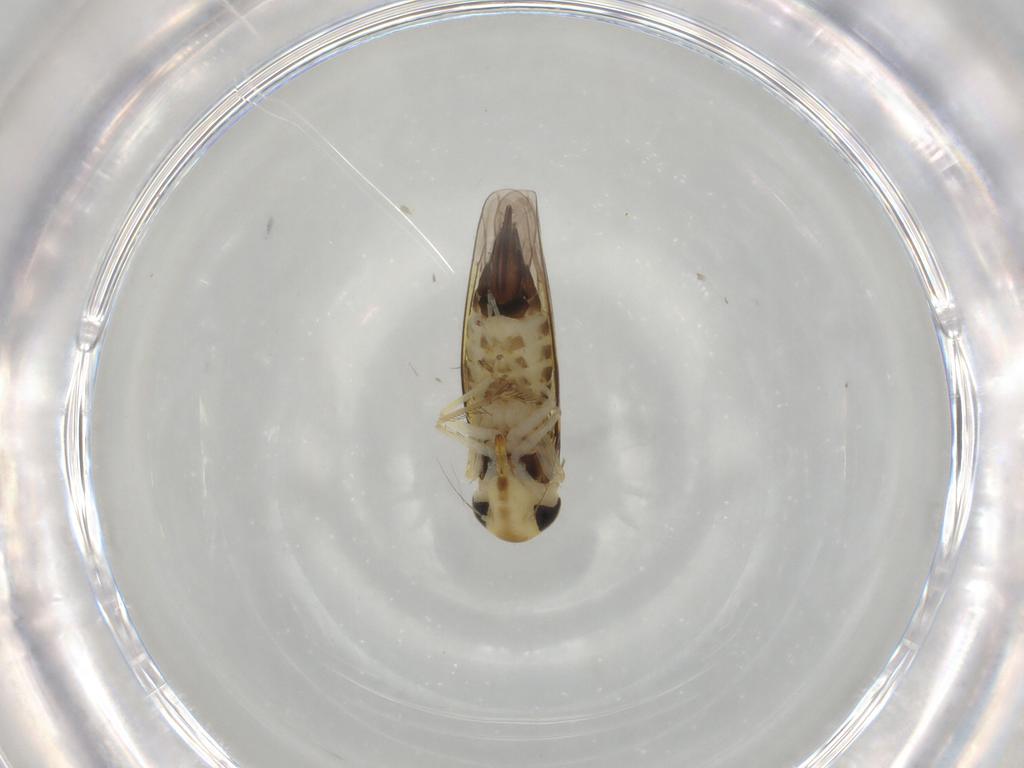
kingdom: Animalia
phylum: Arthropoda
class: Insecta
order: Hemiptera
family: Cicadellidae
